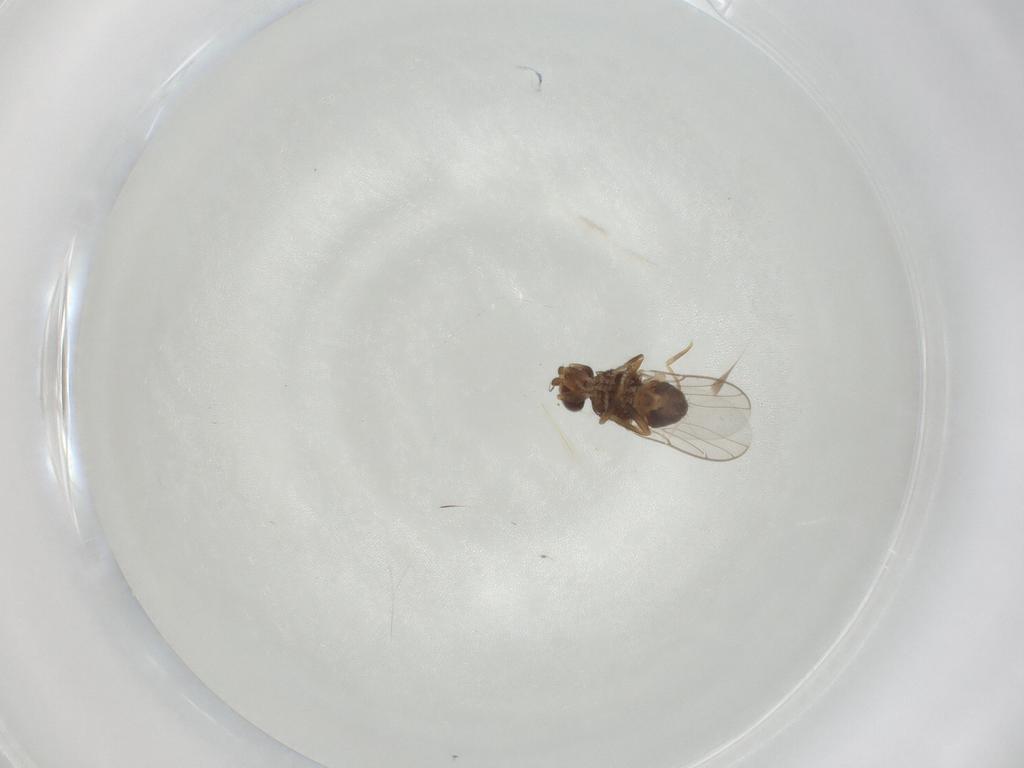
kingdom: Animalia
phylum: Arthropoda
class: Insecta
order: Diptera
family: Chloropidae
